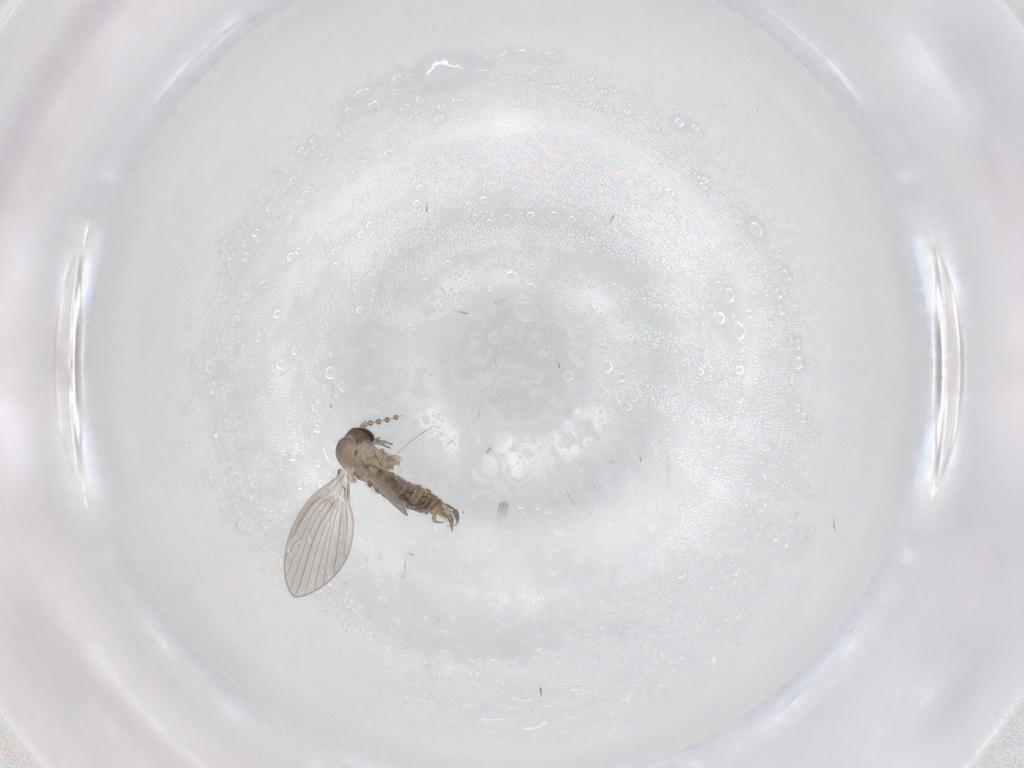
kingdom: Animalia
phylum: Arthropoda
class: Insecta
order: Diptera
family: Psychodidae
